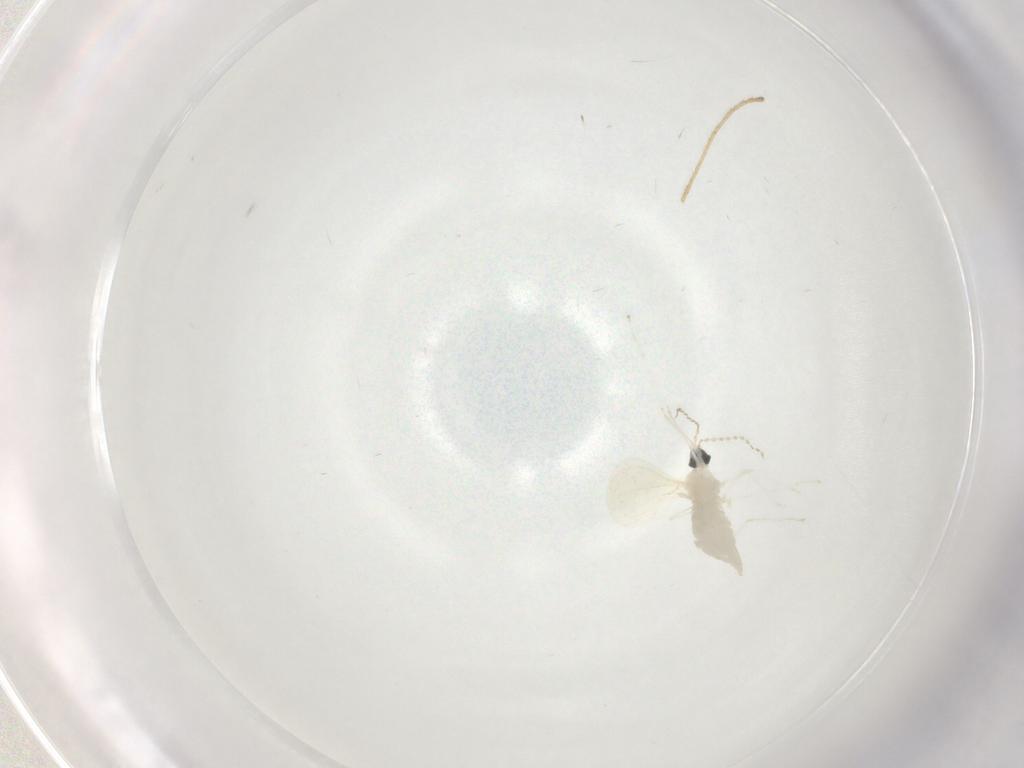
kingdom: Animalia
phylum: Arthropoda
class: Insecta
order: Diptera
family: Cecidomyiidae
